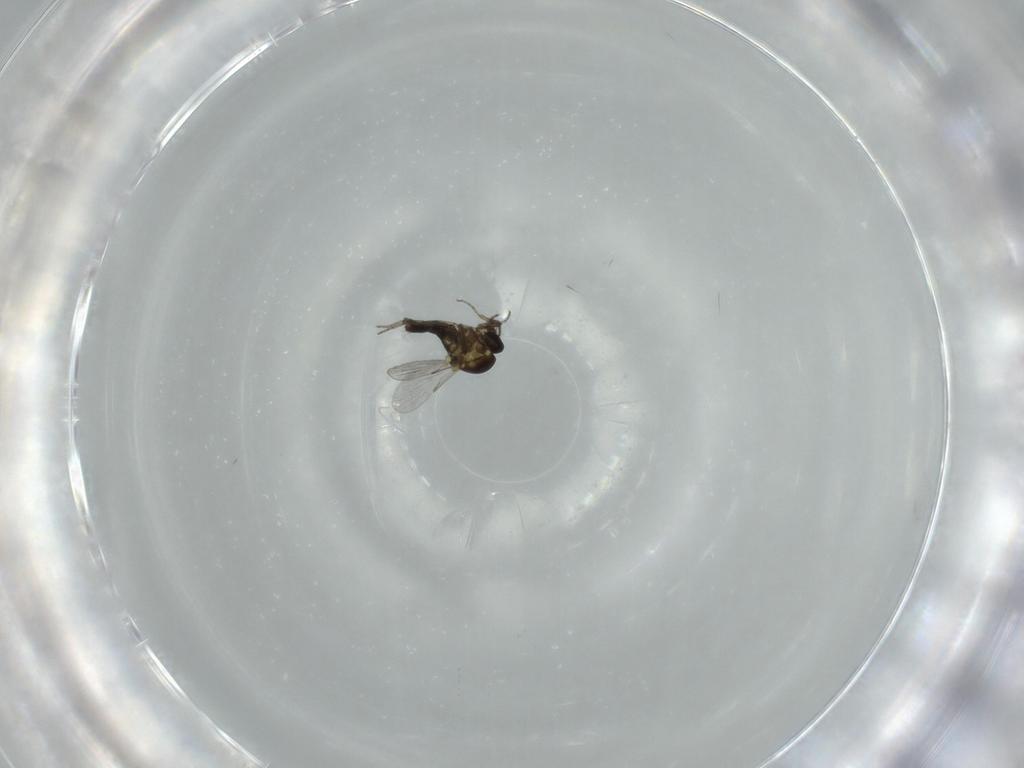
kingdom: Animalia
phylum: Arthropoda
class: Insecta
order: Diptera
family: Ceratopogonidae
